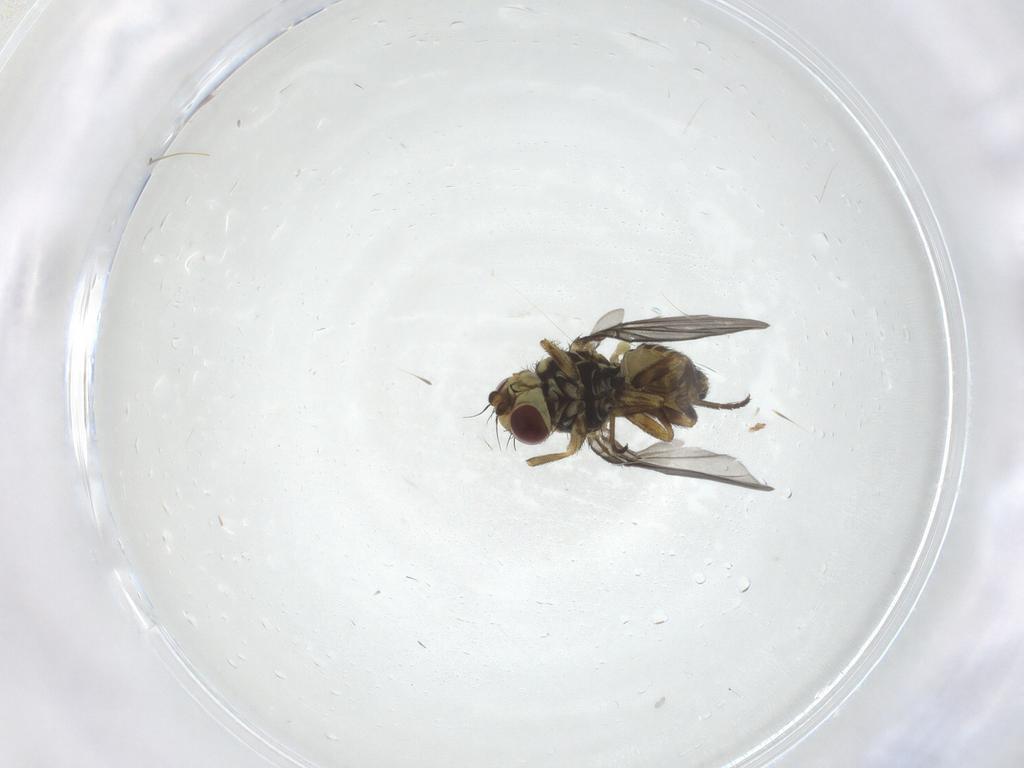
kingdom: Animalia
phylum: Arthropoda
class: Insecta
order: Diptera
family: Agromyzidae
